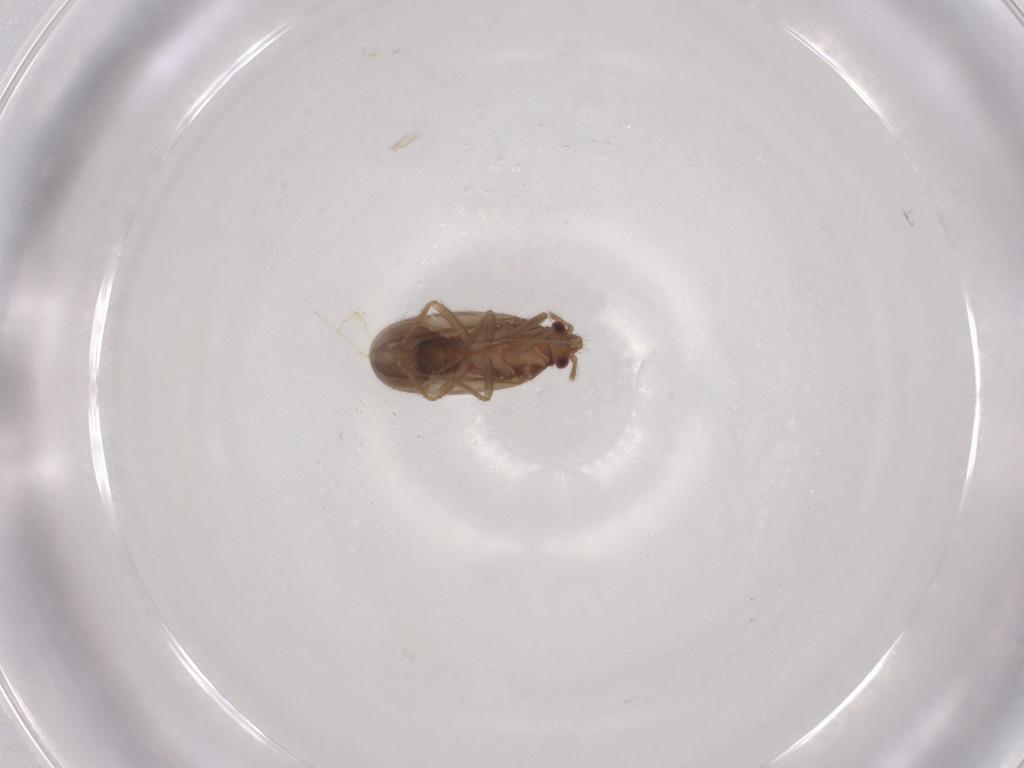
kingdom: Animalia
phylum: Arthropoda
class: Insecta
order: Hemiptera
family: Ceratocombidae
